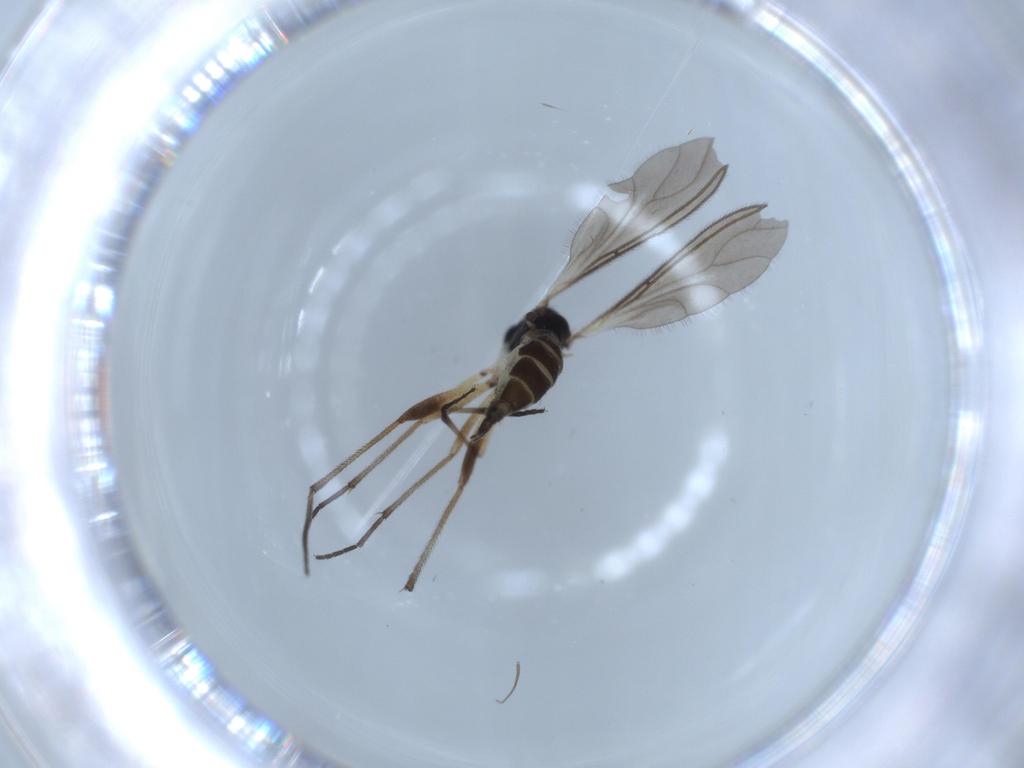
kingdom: Animalia
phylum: Arthropoda
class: Insecta
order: Diptera
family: Sciaridae
